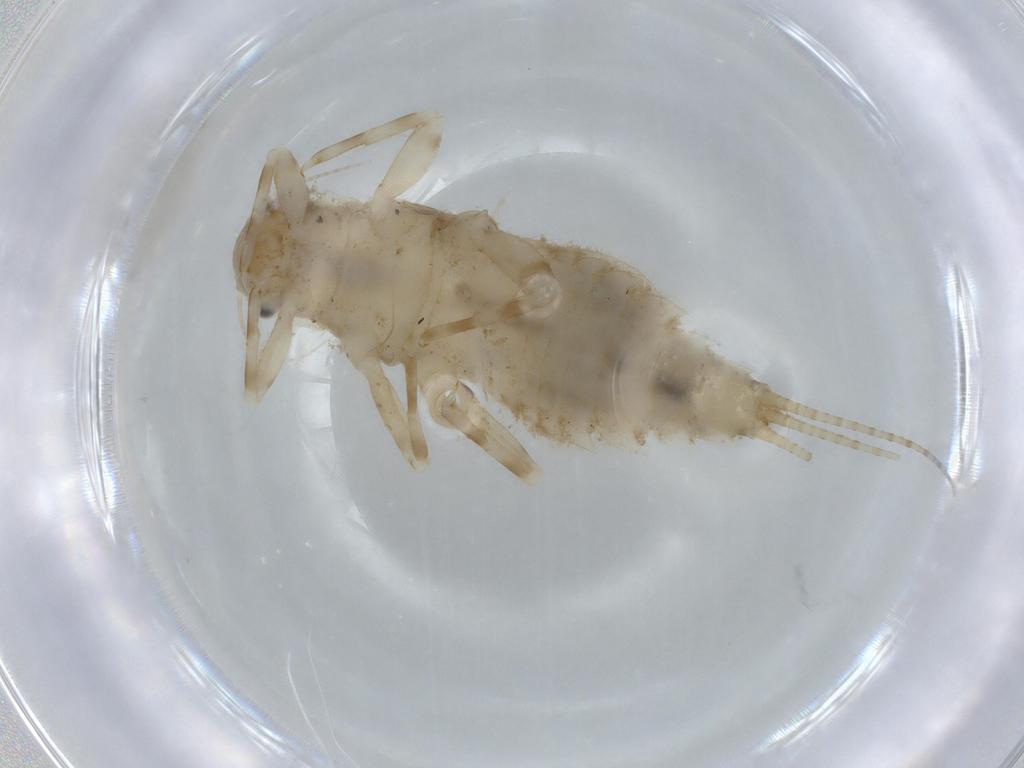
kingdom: Animalia
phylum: Arthropoda
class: Insecta
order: Ephemeroptera
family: Caenidae
